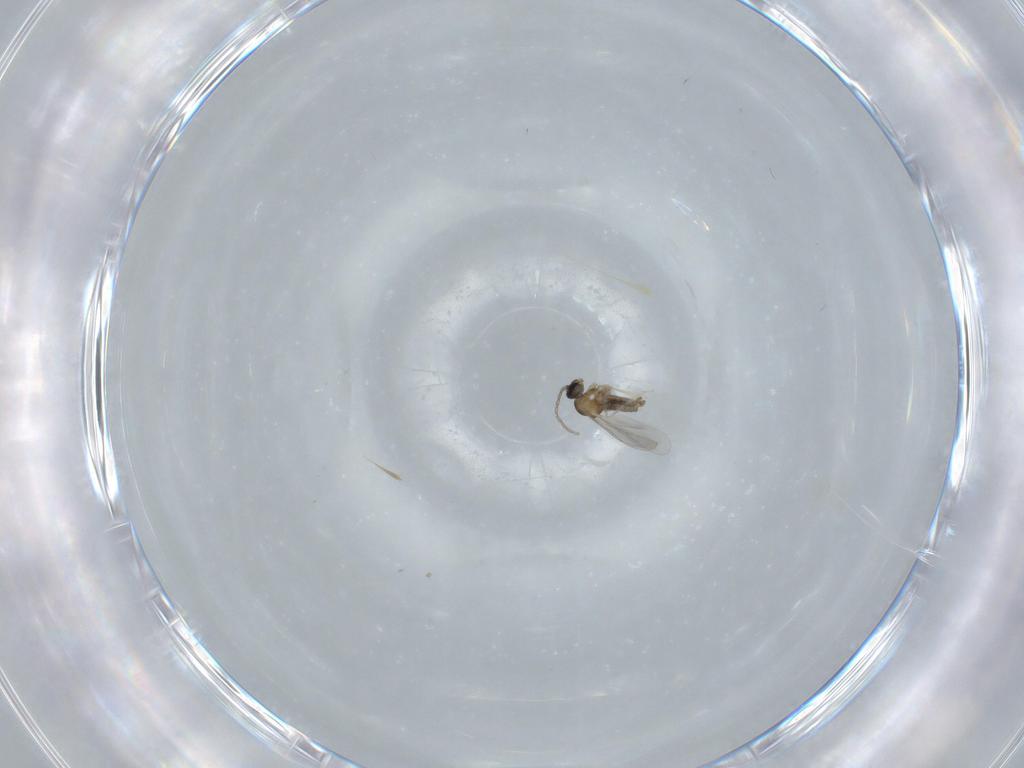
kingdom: Animalia
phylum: Arthropoda
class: Insecta
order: Diptera
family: Cecidomyiidae
